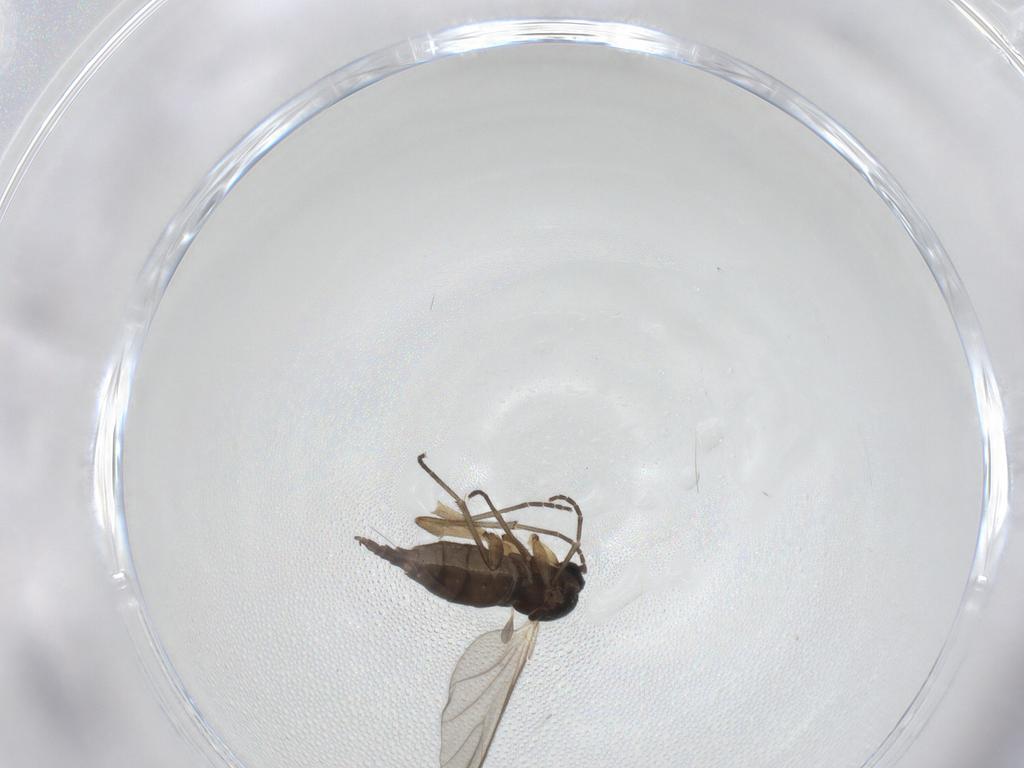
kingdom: Animalia
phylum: Arthropoda
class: Insecta
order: Diptera
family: Sciaridae
